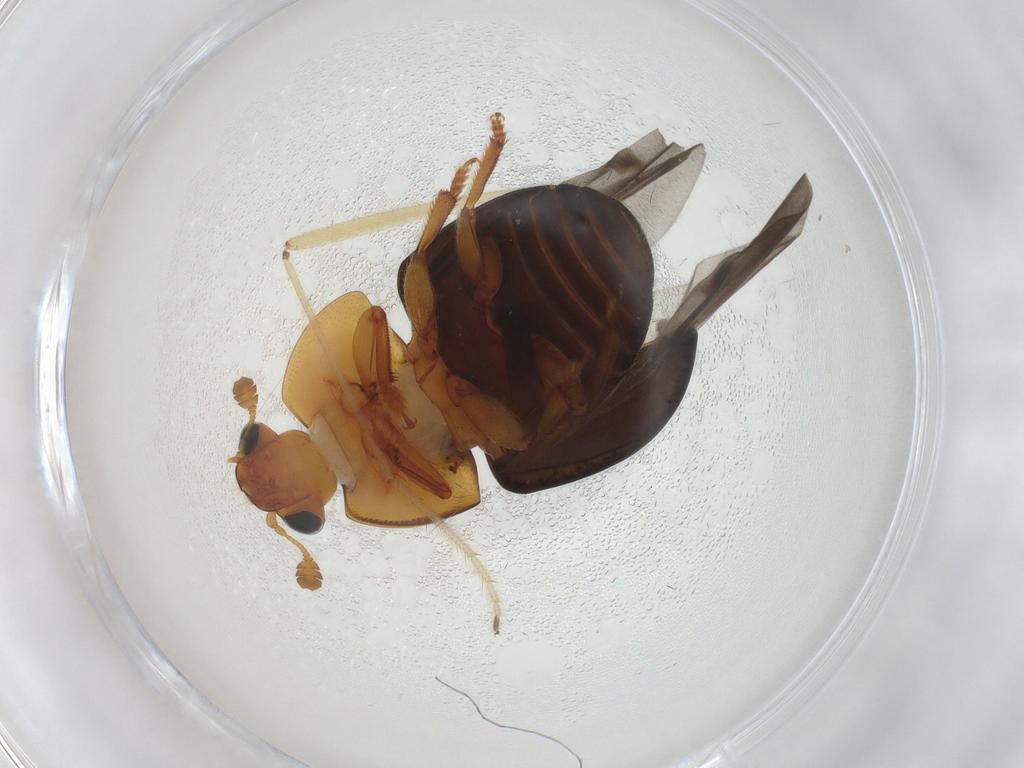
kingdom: Animalia
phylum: Arthropoda
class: Insecta
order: Coleoptera
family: Nitidulidae
